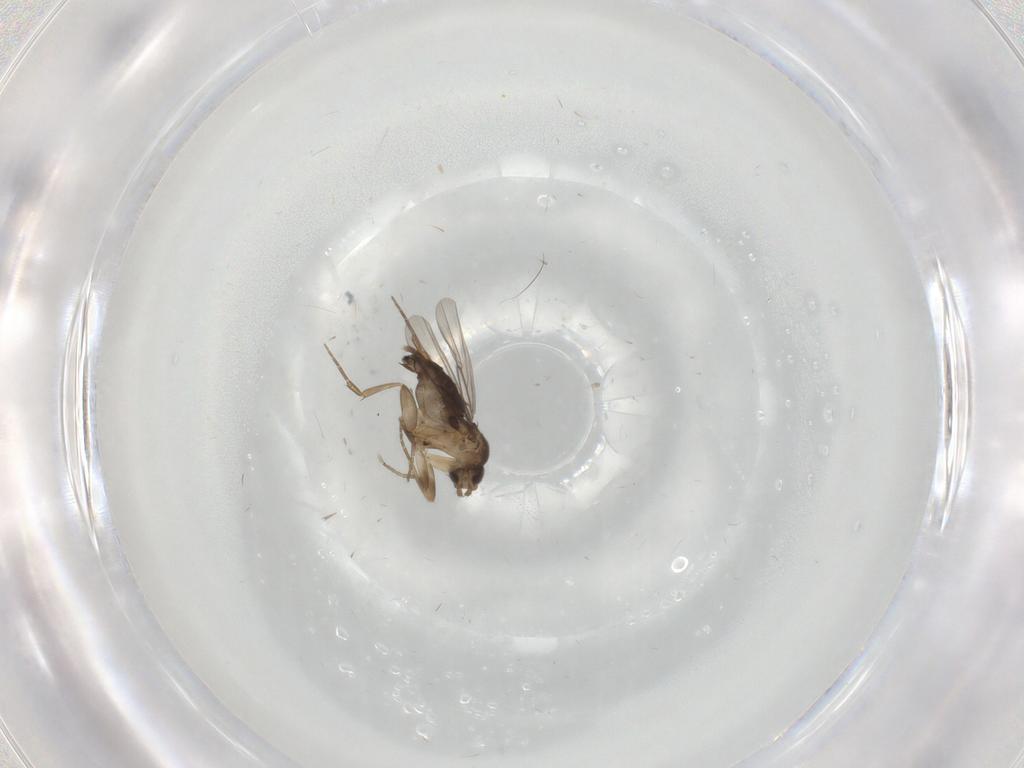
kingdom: Animalia
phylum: Arthropoda
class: Insecta
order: Diptera
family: Phoridae
